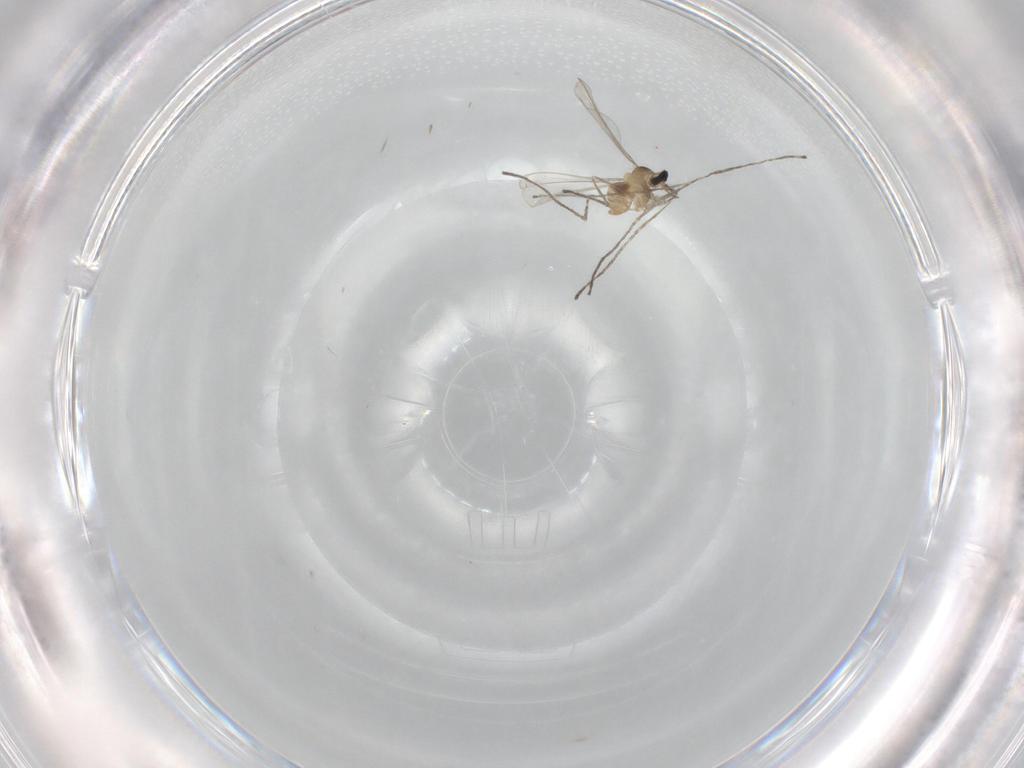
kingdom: Animalia
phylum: Arthropoda
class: Insecta
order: Diptera
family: Cecidomyiidae
